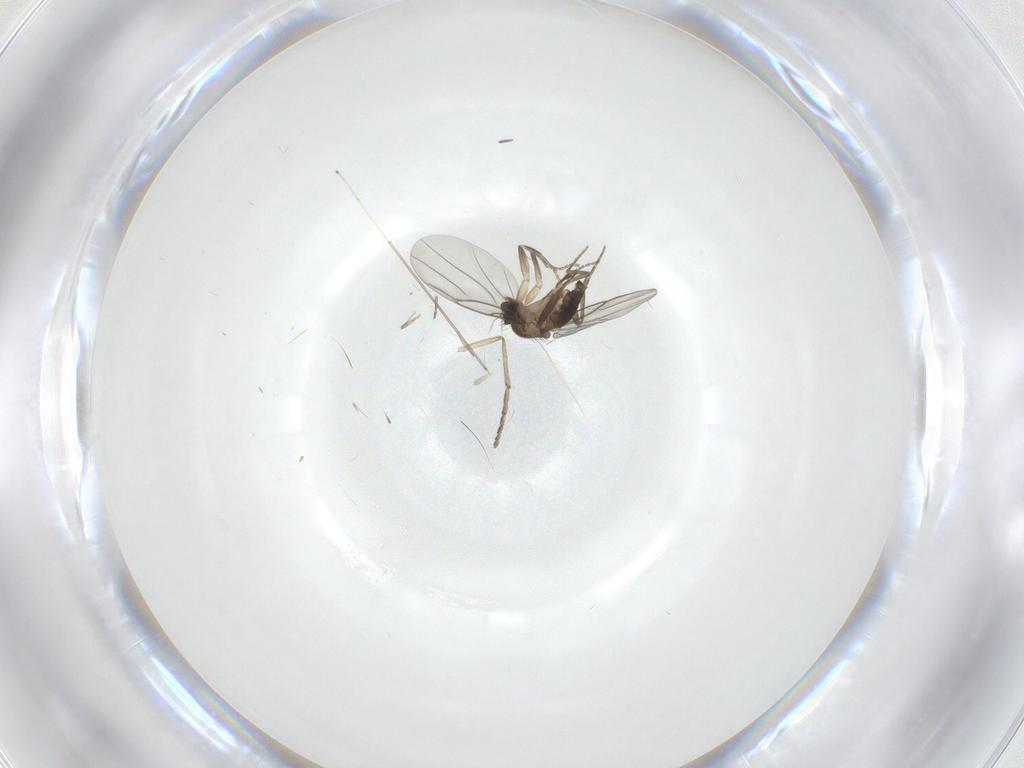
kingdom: Animalia
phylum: Arthropoda
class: Insecta
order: Diptera
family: Phoridae
